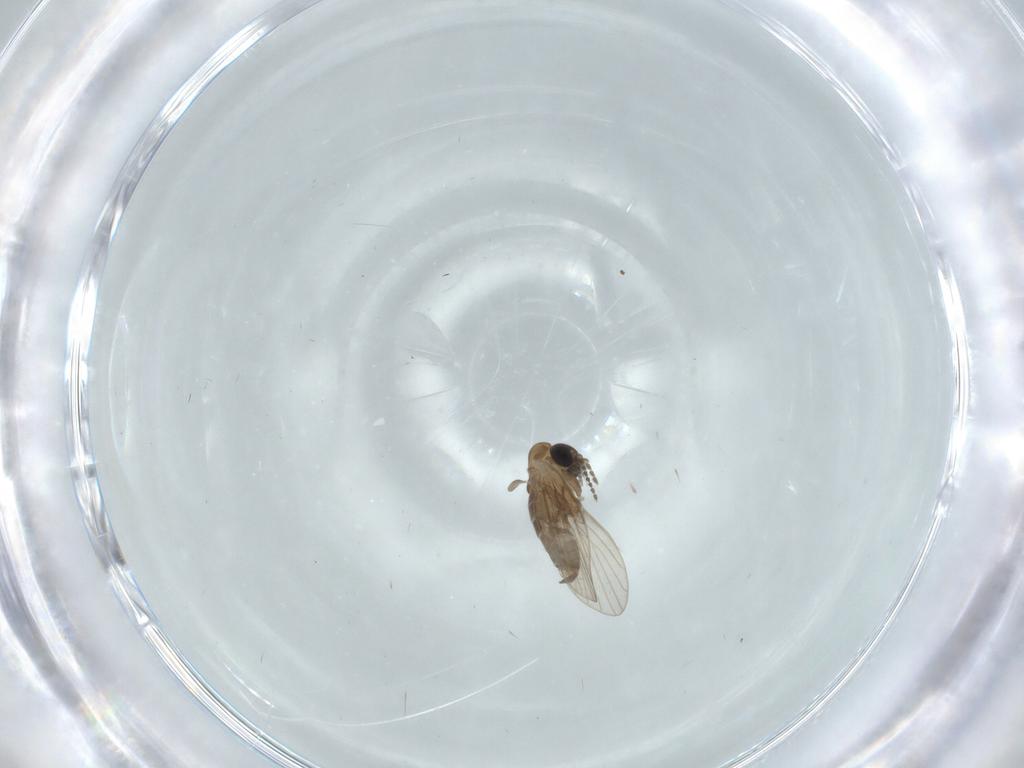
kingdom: Animalia
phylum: Arthropoda
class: Insecta
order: Diptera
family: Psychodidae
